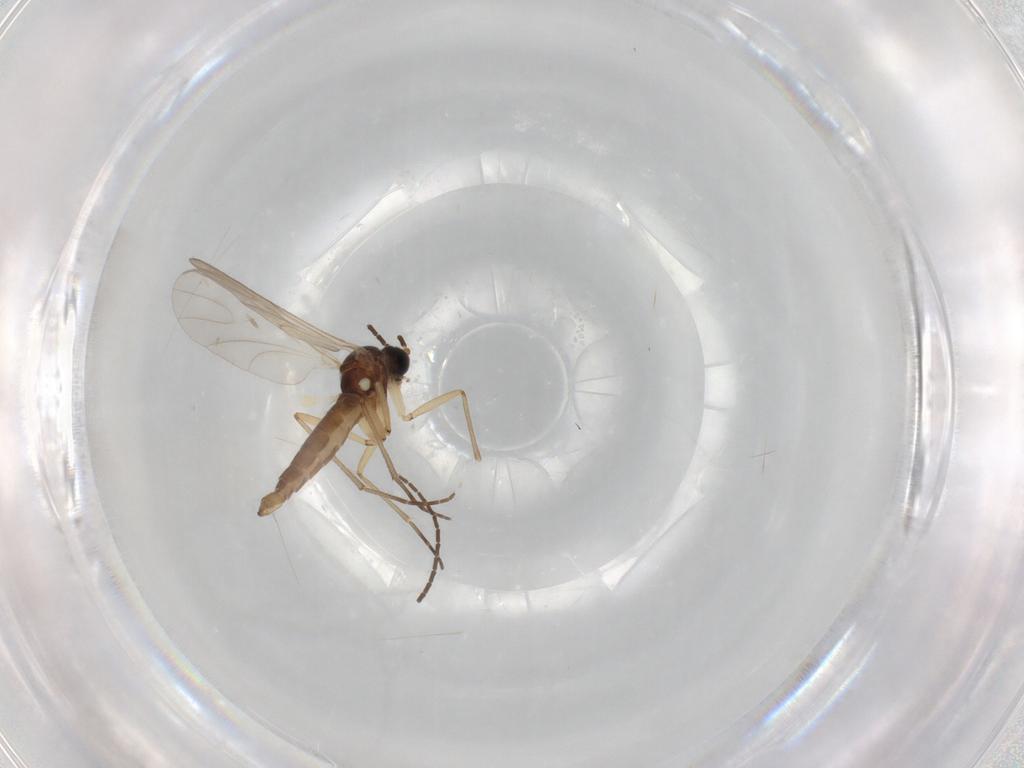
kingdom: Animalia
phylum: Arthropoda
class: Insecta
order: Diptera
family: Sciaridae
